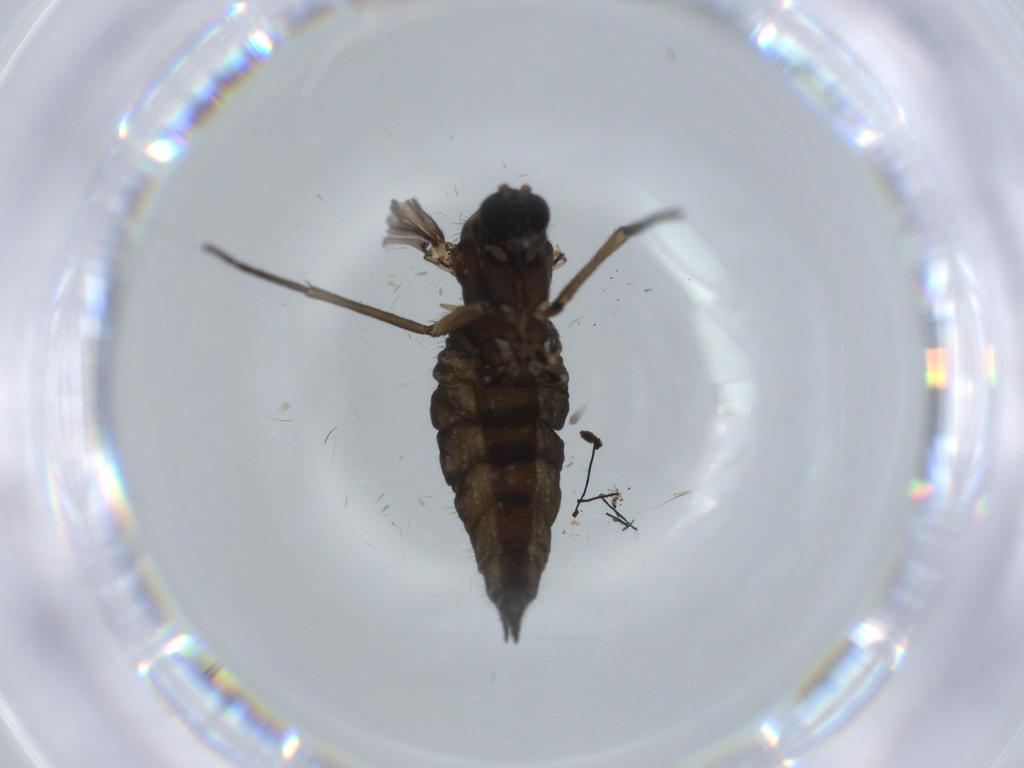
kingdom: Animalia
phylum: Arthropoda
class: Insecta
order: Diptera
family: Sciaridae
